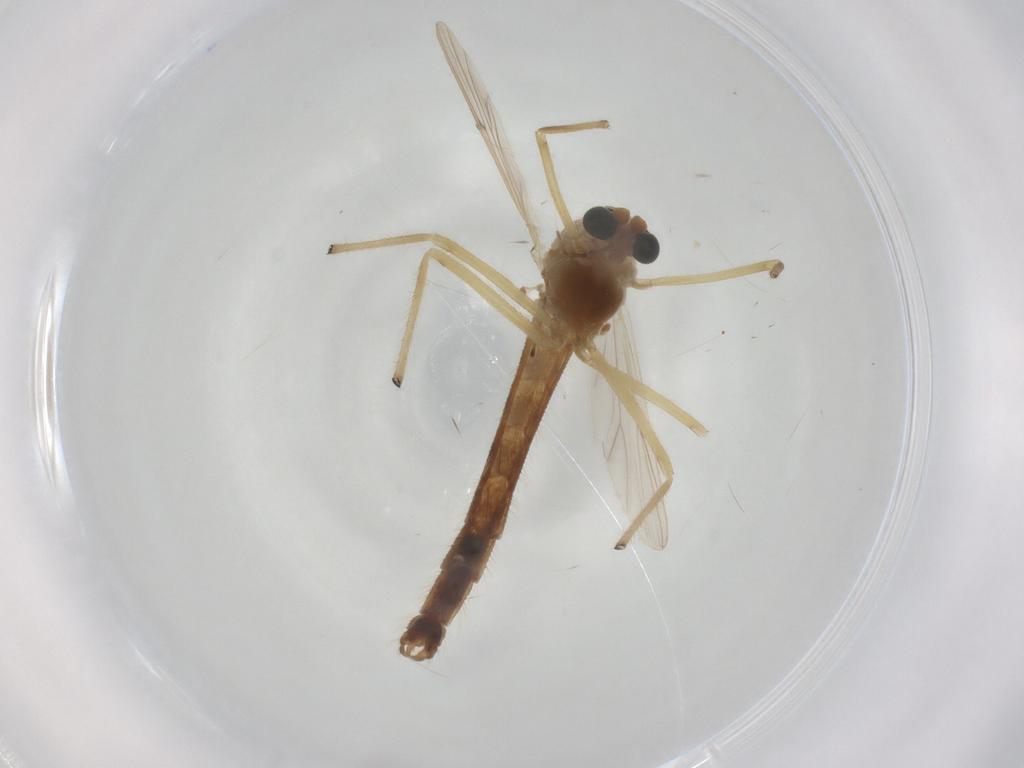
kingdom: Animalia
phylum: Arthropoda
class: Insecta
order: Diptera
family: Chironomidae
